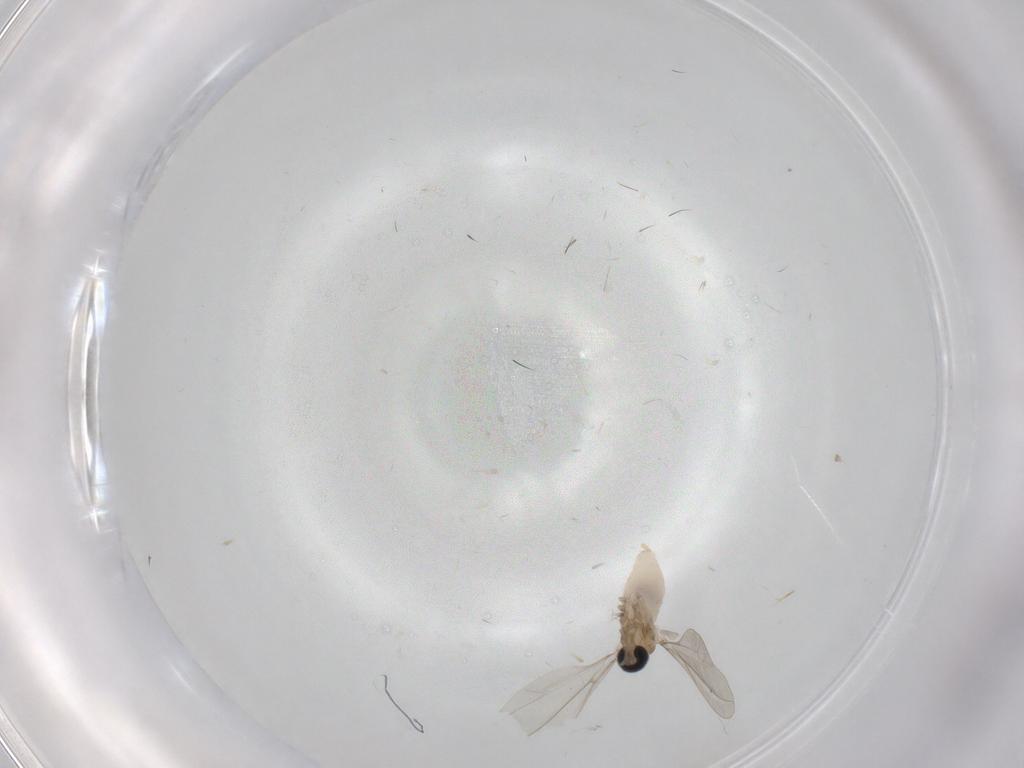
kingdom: Animalia
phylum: Arthropoda
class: Insecta
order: Diptera
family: Cecidomyiidae
